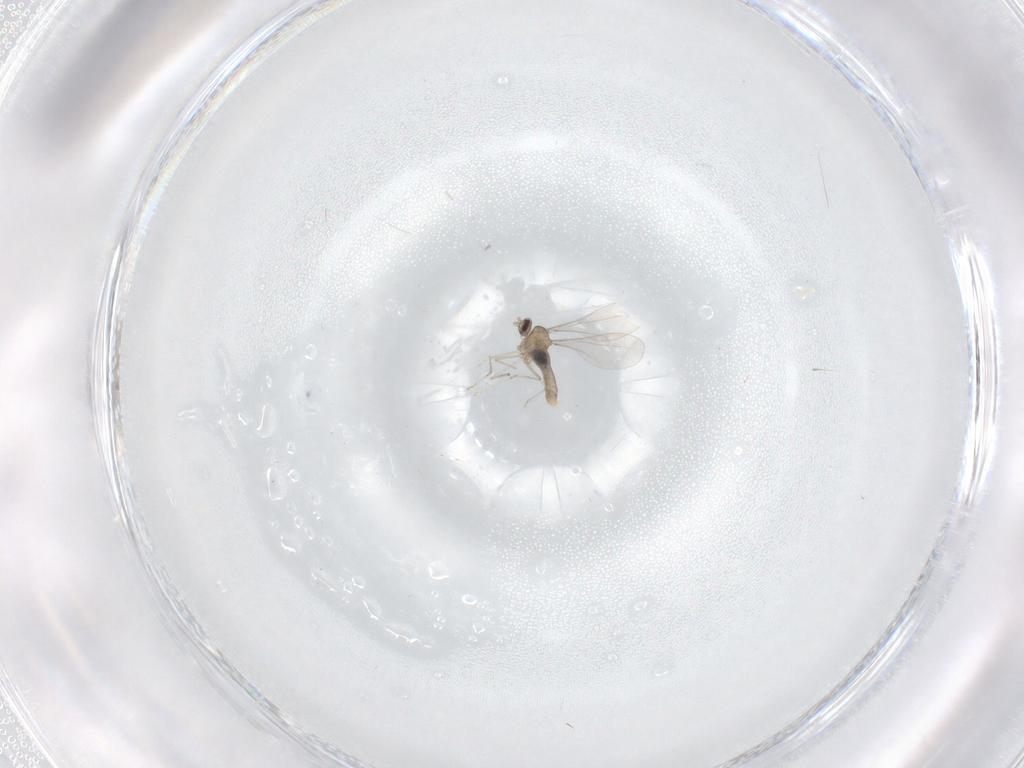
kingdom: Animalia
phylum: Arthropoda
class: Insecta
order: Diptera
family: Cecidomyiidae
